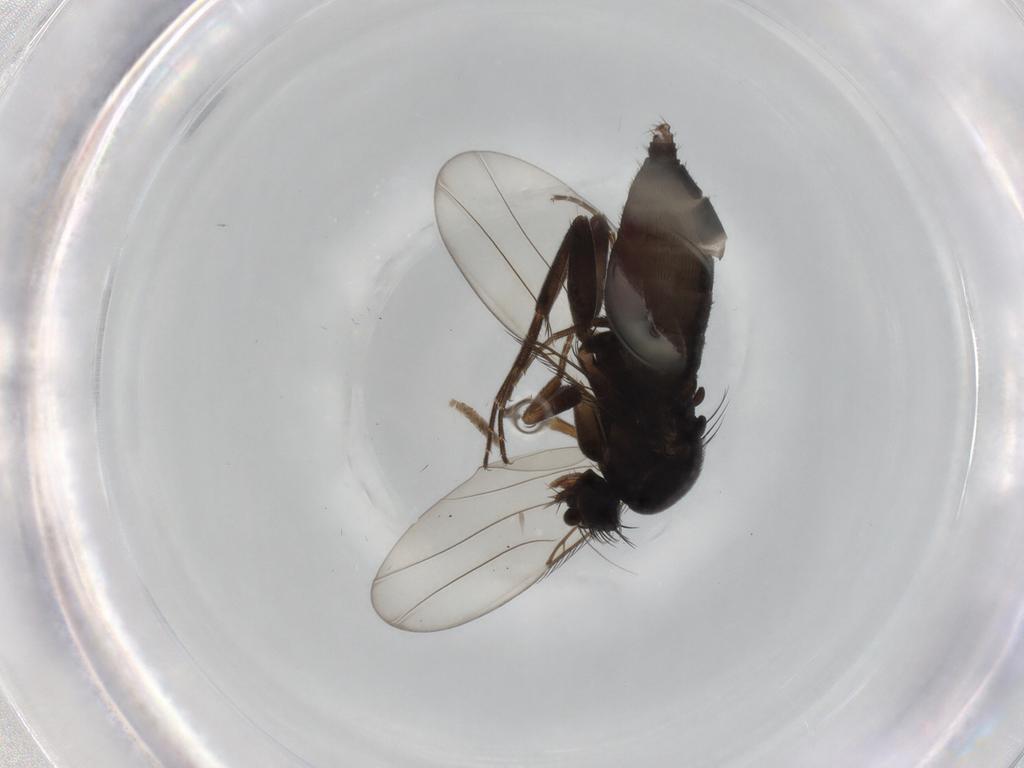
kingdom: Animalia
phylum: Arthropoda
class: Insecta
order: Diptera
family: Phoridae
